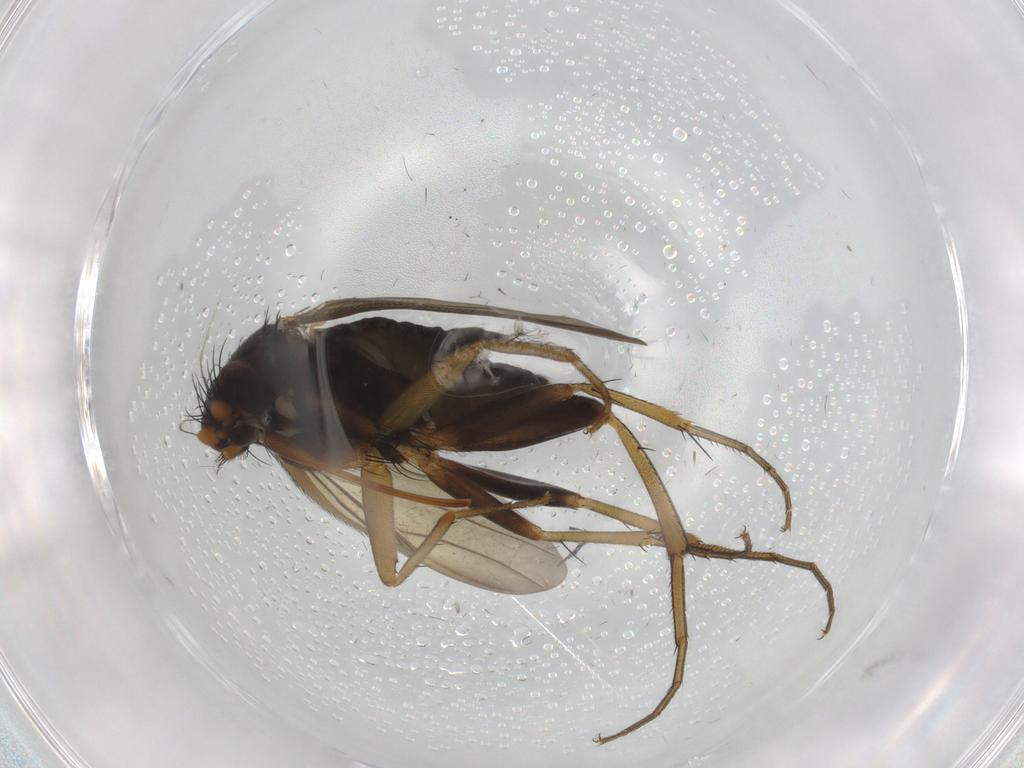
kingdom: Animalia
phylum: Arthropoda
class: Insecta
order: Diptera
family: Phoridae
